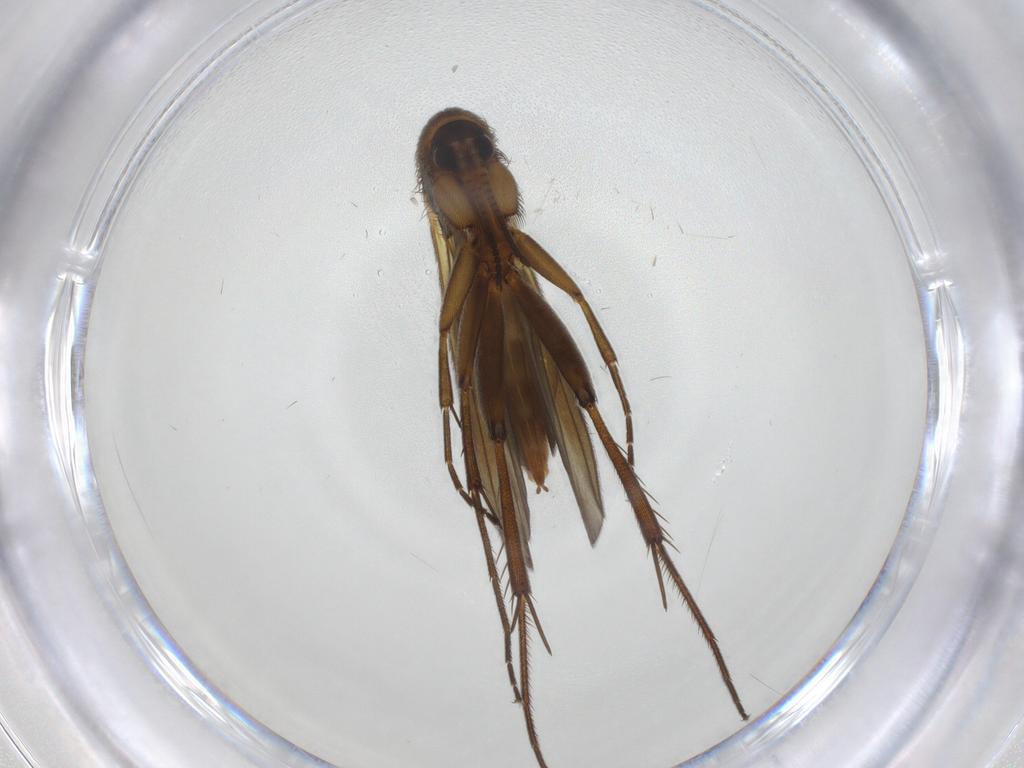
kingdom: Animalia
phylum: Arthropoda
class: Insecta
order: Diptera
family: Mycetophilidae
